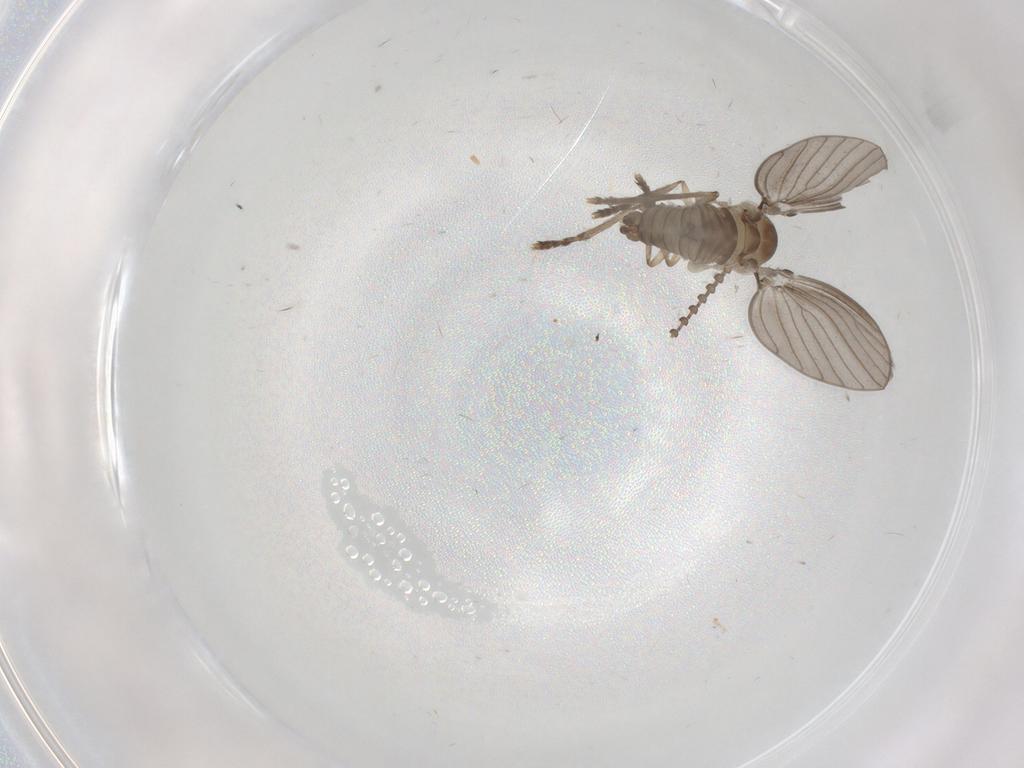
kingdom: Animalia
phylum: Arthropoda
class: Insecta
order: Diptera
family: Psychodidae
